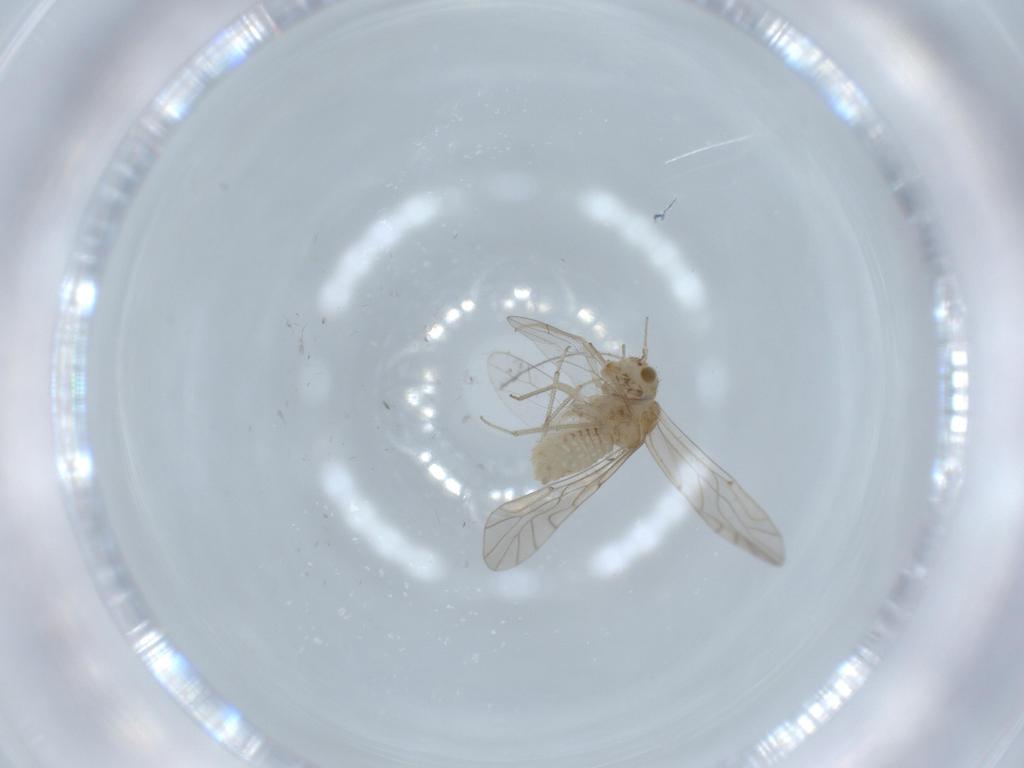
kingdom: Animalia
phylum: Arthropoda
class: Insecta
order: Psocodea
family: Lachesillidae
